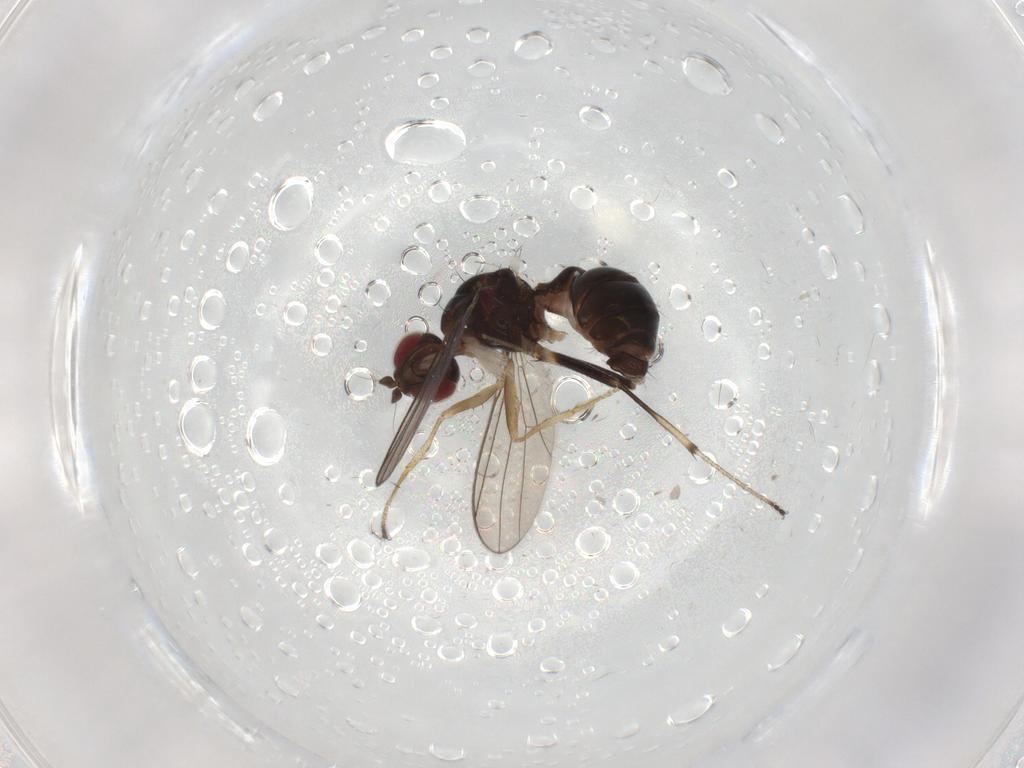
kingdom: Animalia
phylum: Arthropoda
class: Insecta
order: Diptera
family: Sepsidae
